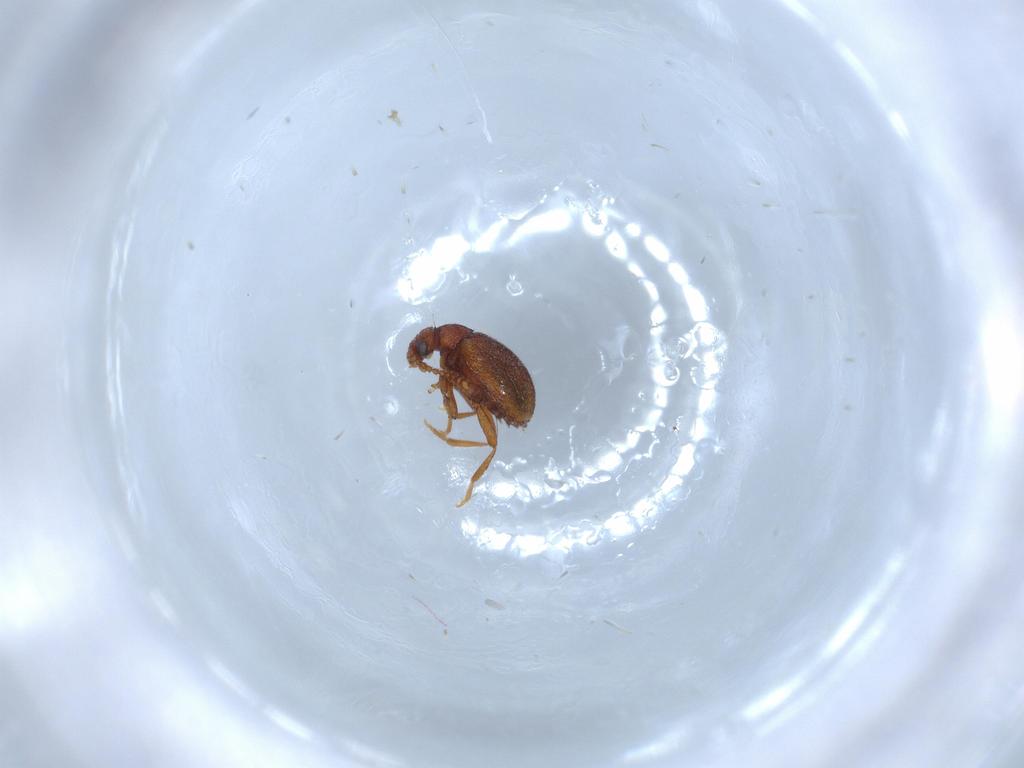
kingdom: Animalia
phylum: Arthropoda
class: Insecta
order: Coleoptera
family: Aderidae
